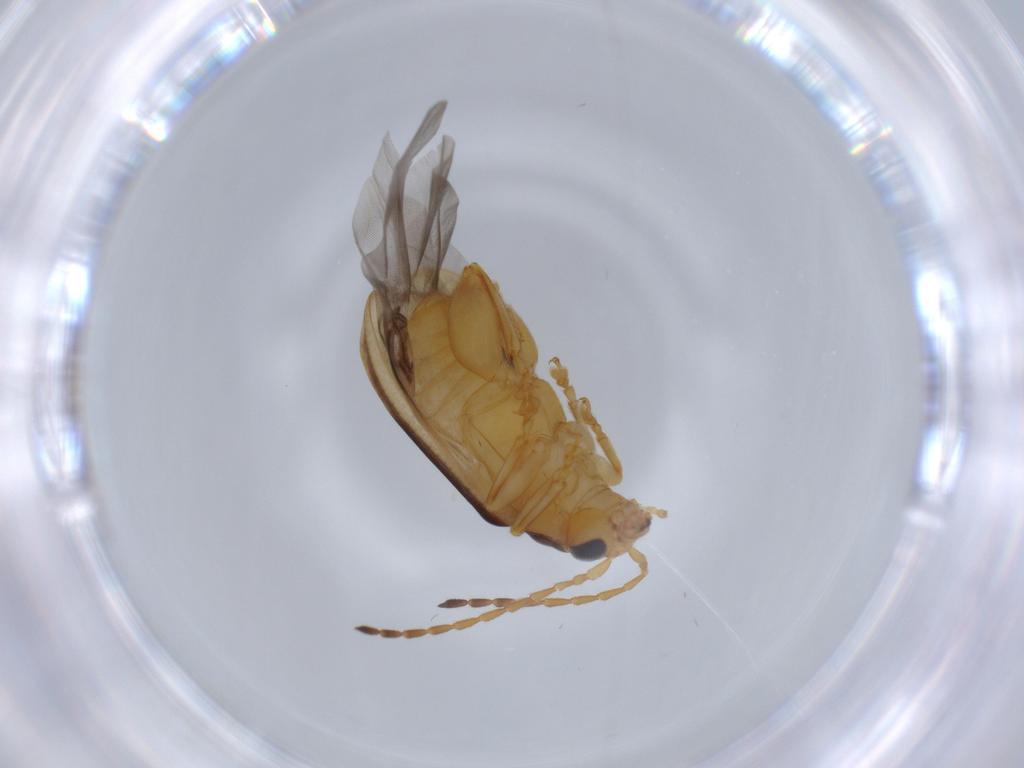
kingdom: Animalia
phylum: Arthropoda
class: Insecta
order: Coleoptera
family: Chrysomelidae
